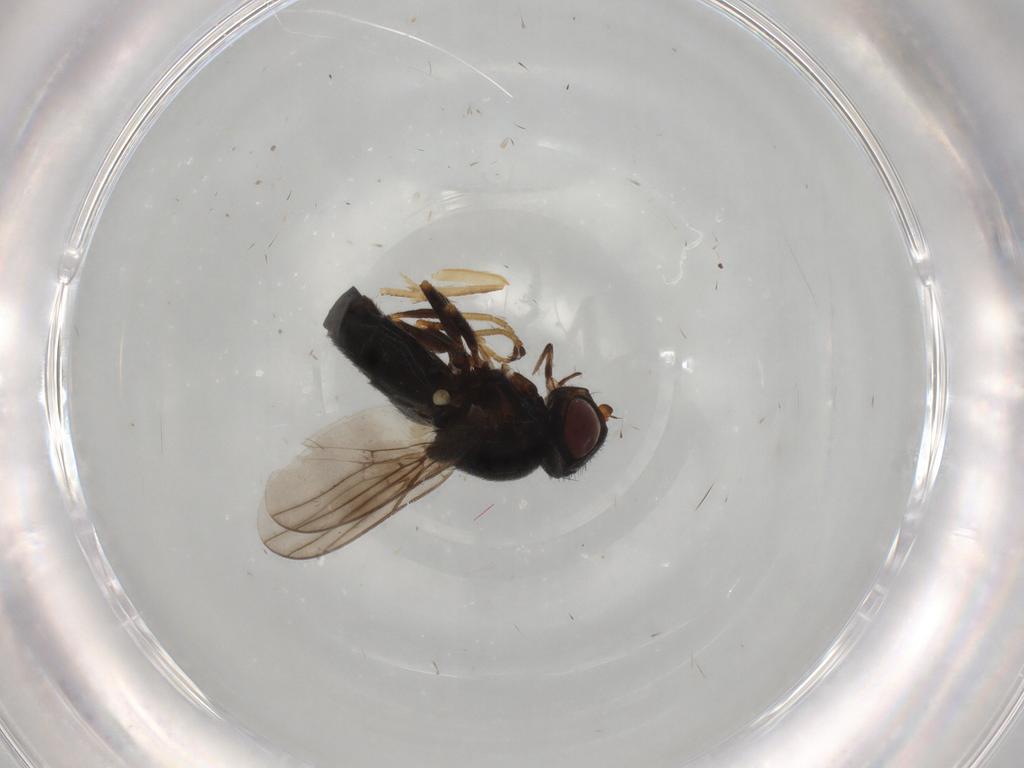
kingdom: Animalia
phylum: Arthropoda
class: Insecta
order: Diptera
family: Chloropidae
